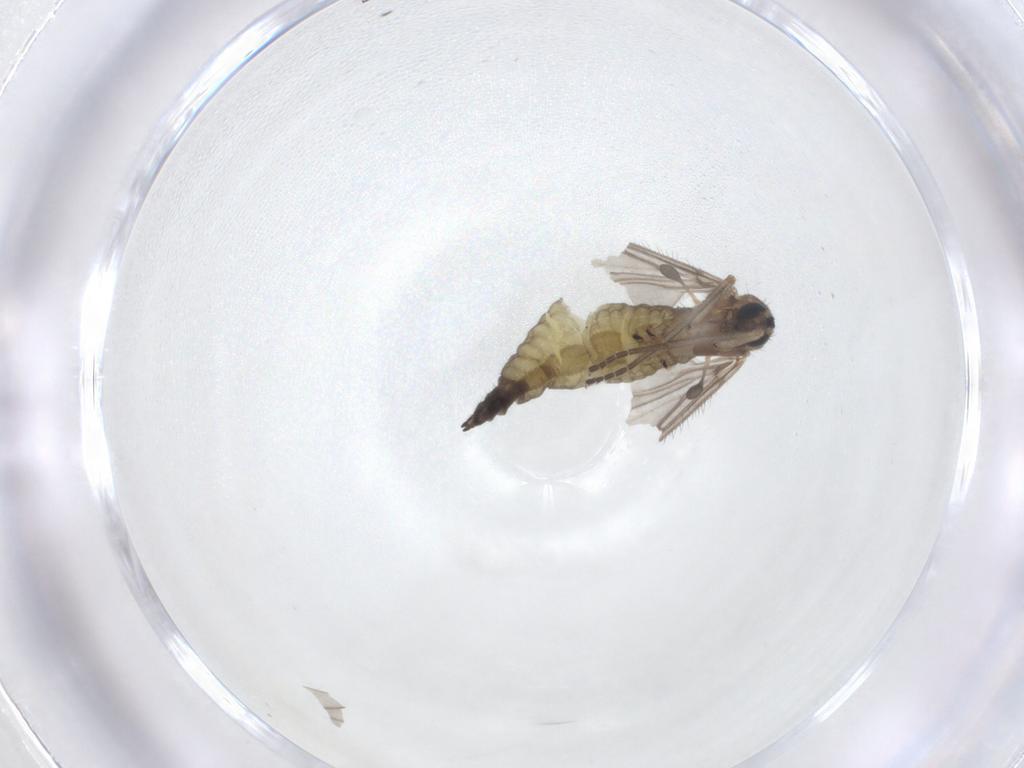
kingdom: Animalia
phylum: Arthropoda
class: Insecta
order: Diptera
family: Sciaridae
